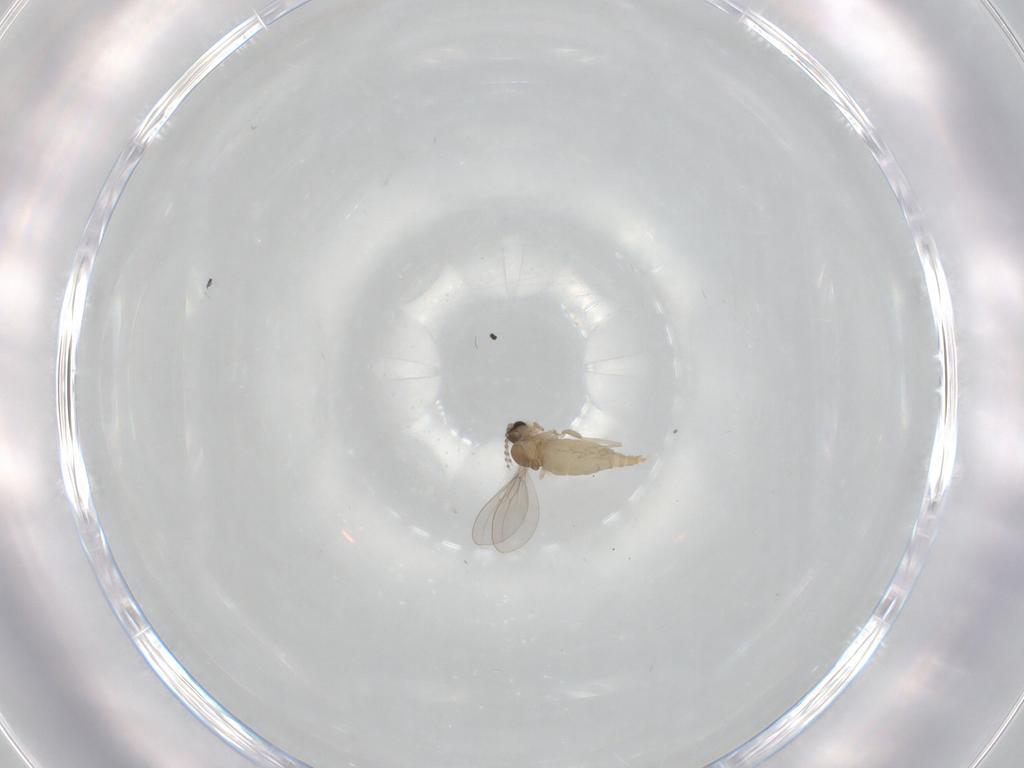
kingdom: Animalia
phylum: Arthropoda
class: Insecta
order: Diptera
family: Cecidomyiidae
